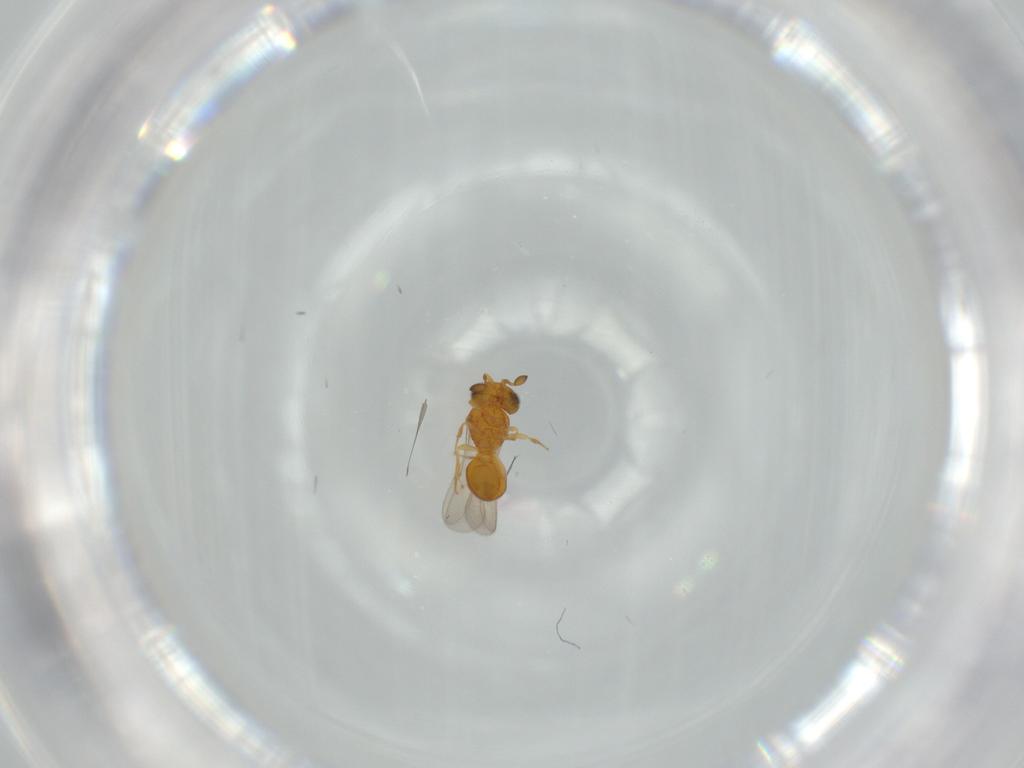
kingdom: Animalia
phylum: Arthropoda
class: Insecta
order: Hymenoptera
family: Scelionidae
